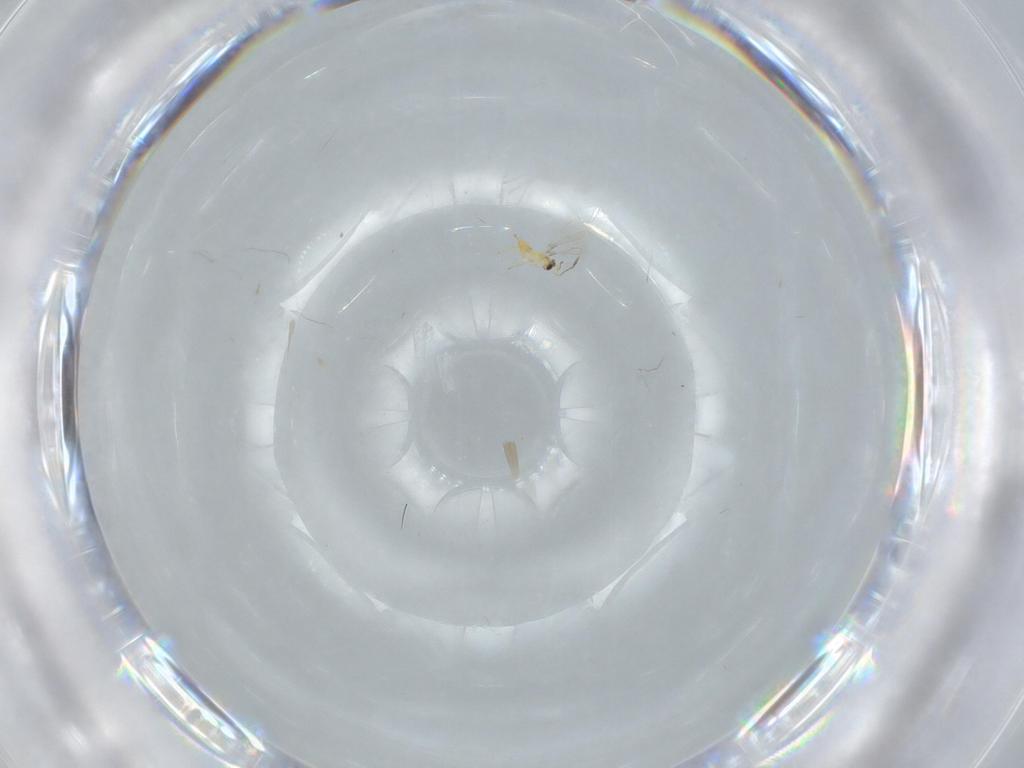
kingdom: Animalia
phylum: Arthropoda
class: Insecta
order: Hymenoptera
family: Mymaridae
